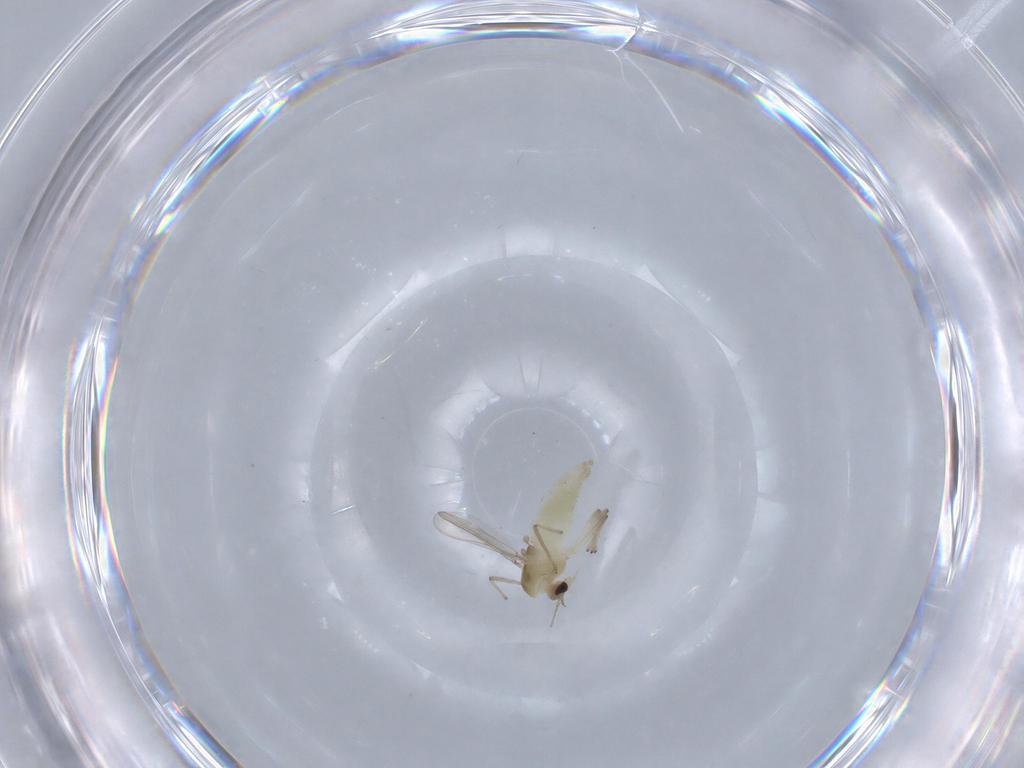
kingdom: Animalia
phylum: Arthropoda
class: Insecta
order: Diptera
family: Chironomidae
